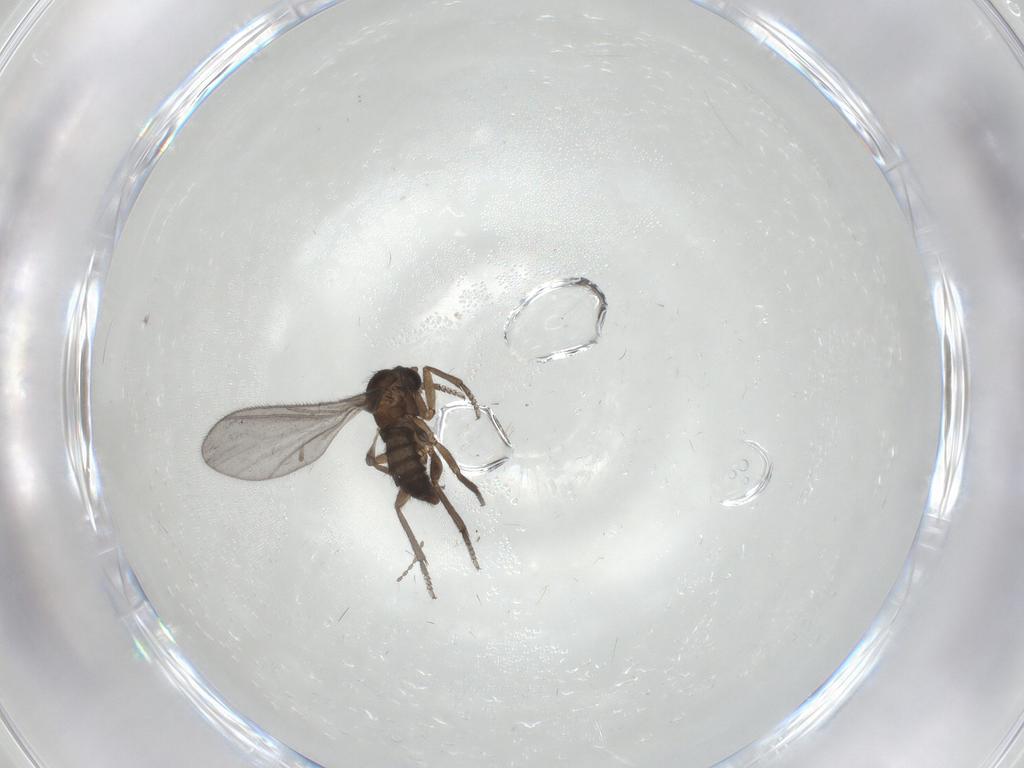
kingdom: Animalia
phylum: Arthropoda
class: Insecta
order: Diptera
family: Sciaridae
